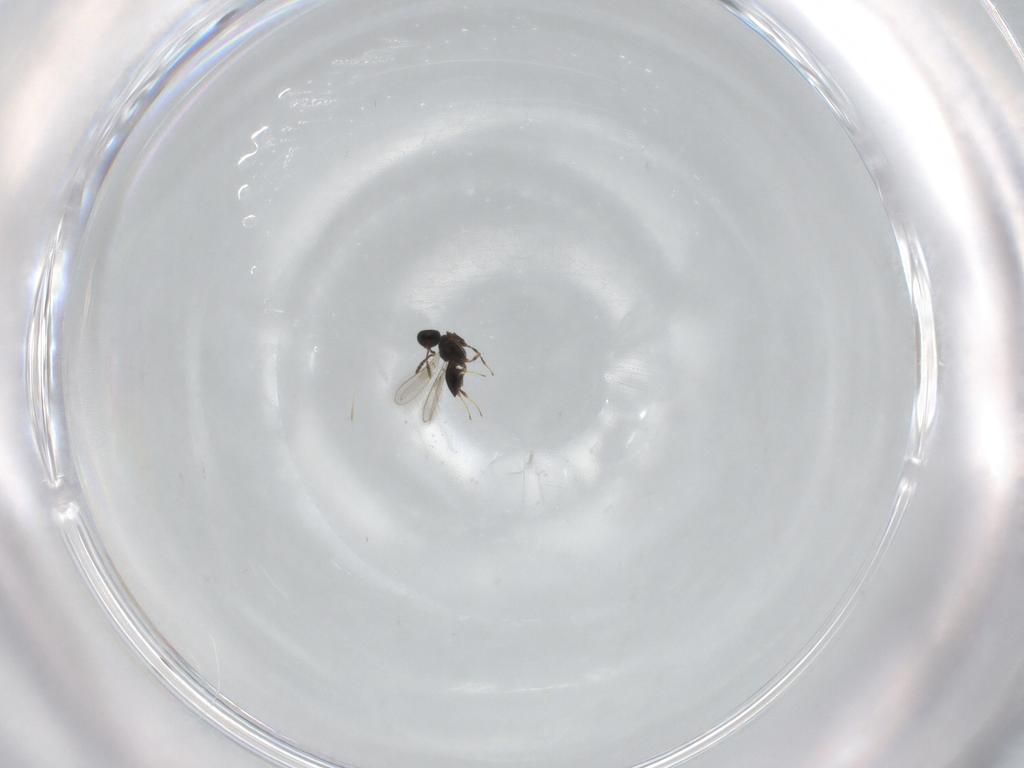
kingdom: Animalia
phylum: Arthropoda
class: Insecta
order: Hymenoptera
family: Scelionidae
